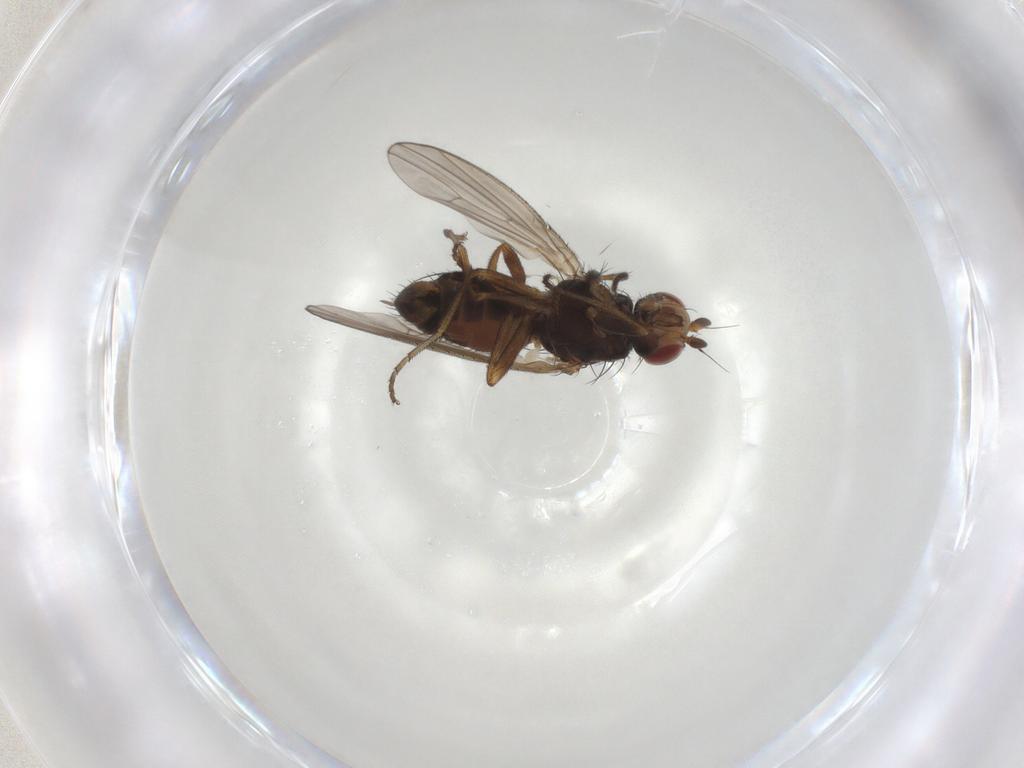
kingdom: Animalia
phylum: Arthropoda
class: Insecta
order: Diptera
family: Heleomyzidae
